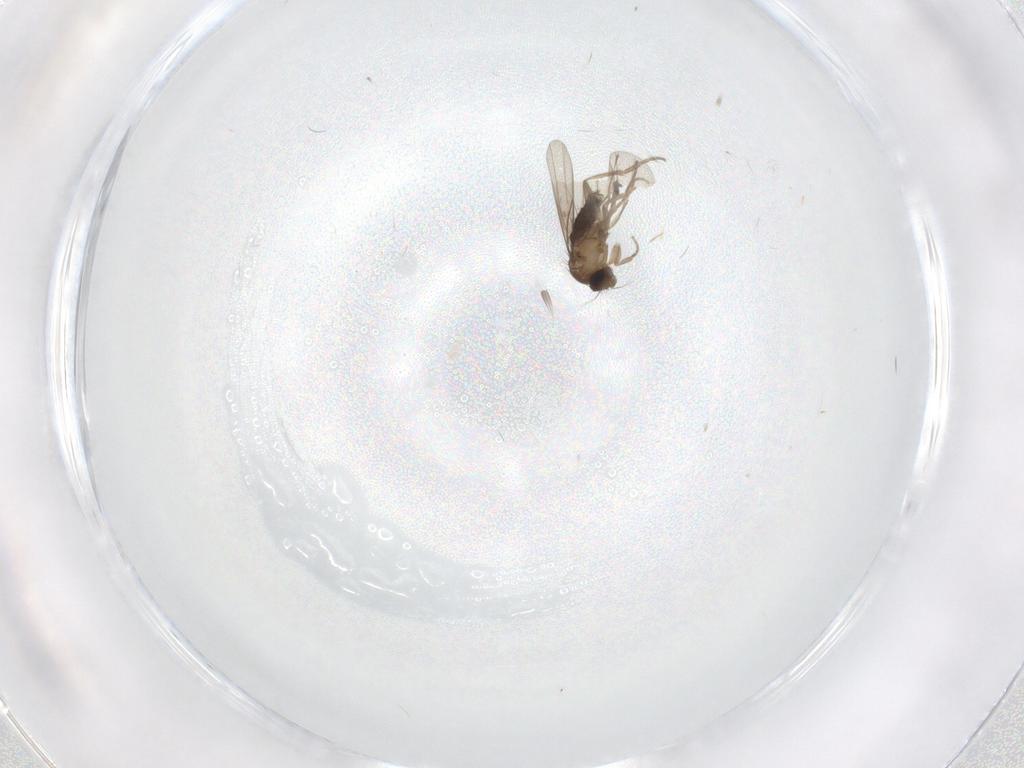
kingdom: Animalia
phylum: Arthropoda
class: Insecta
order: Diptera
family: Phoridae
